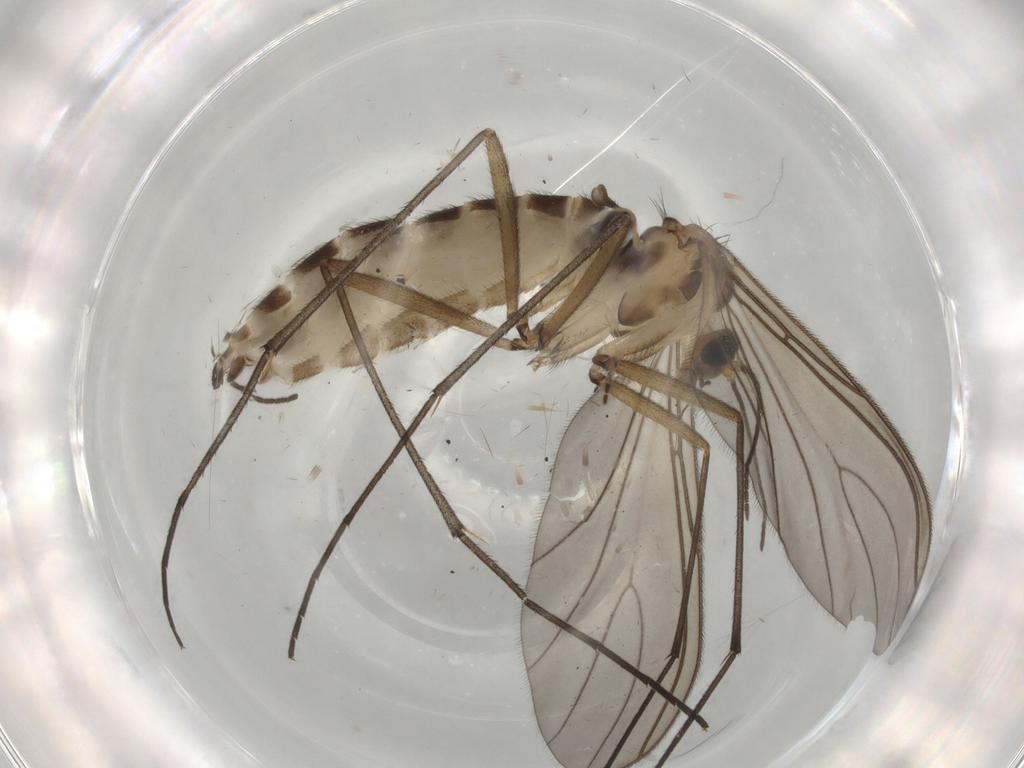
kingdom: Animalia
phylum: Arthropoda
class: Insecta
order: Diptera
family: Sciaridae
